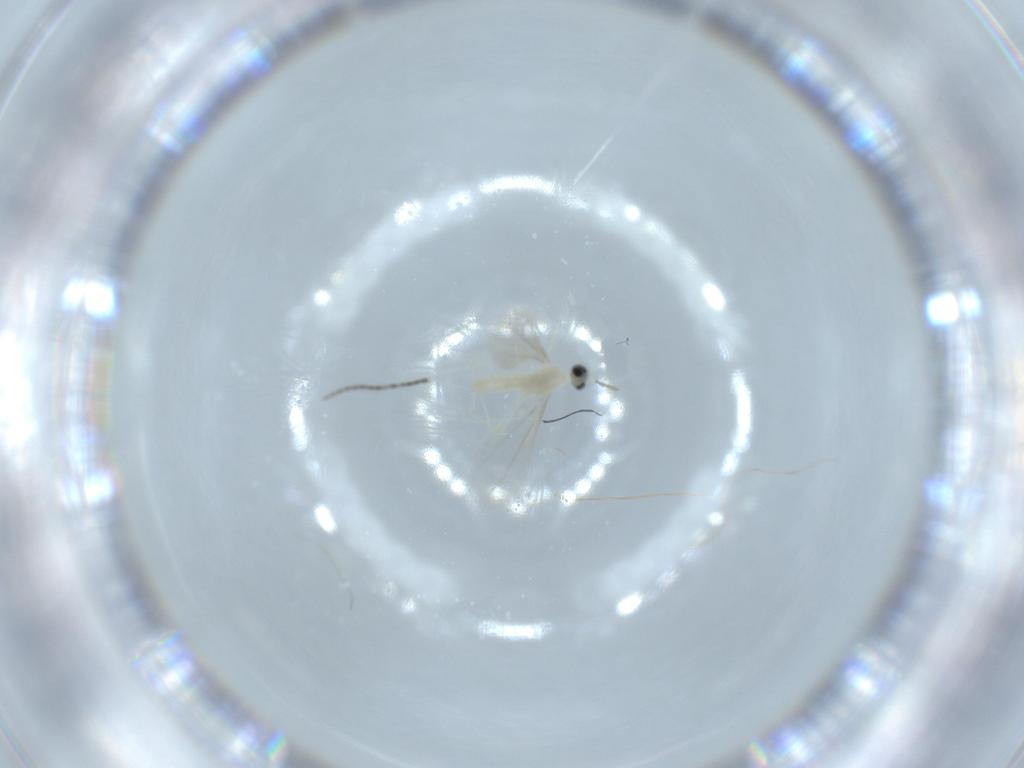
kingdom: Animalia
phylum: Arthropoda
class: Insecta
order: Diptera
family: Cecidomyiidae
